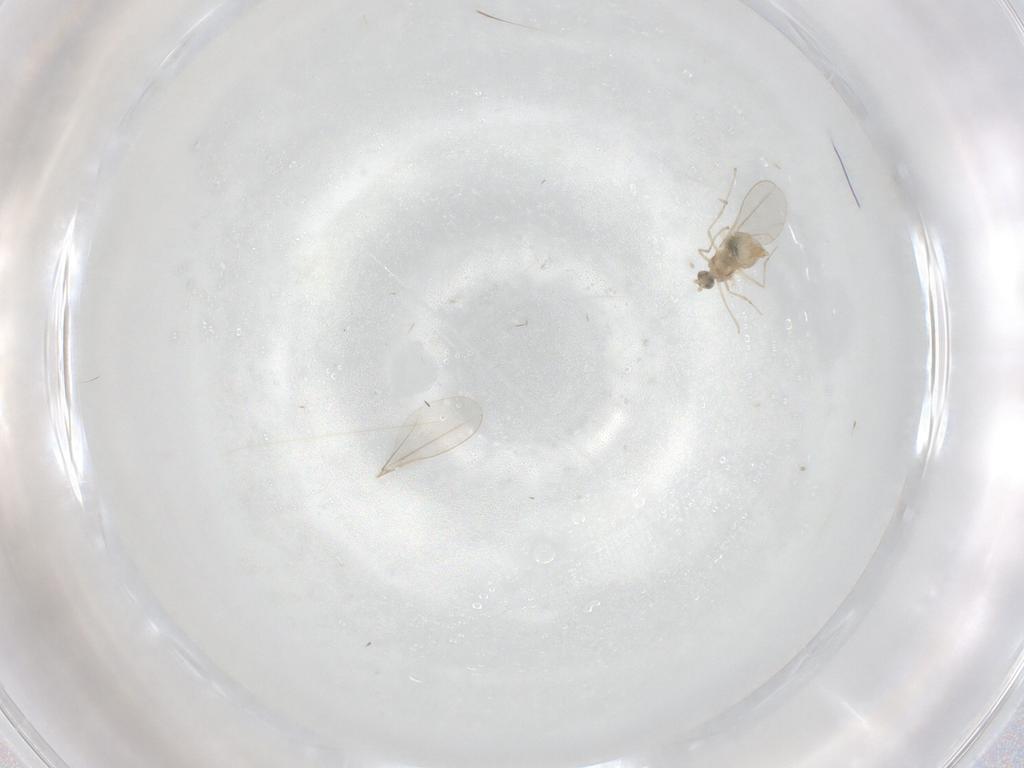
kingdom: Animalia
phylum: Arthropoda
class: Insecta
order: Diptera
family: Cecidomyiidae
